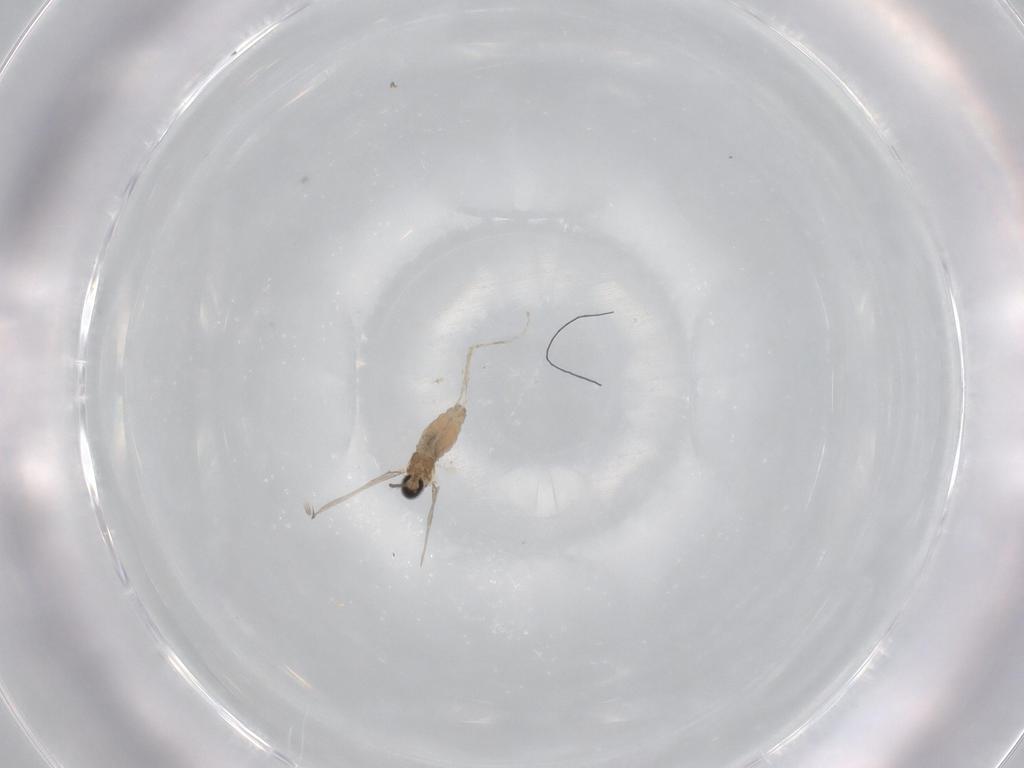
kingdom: Animalia
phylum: Arthropoda
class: Insecta
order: Diptera
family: Cecidomyiidae
